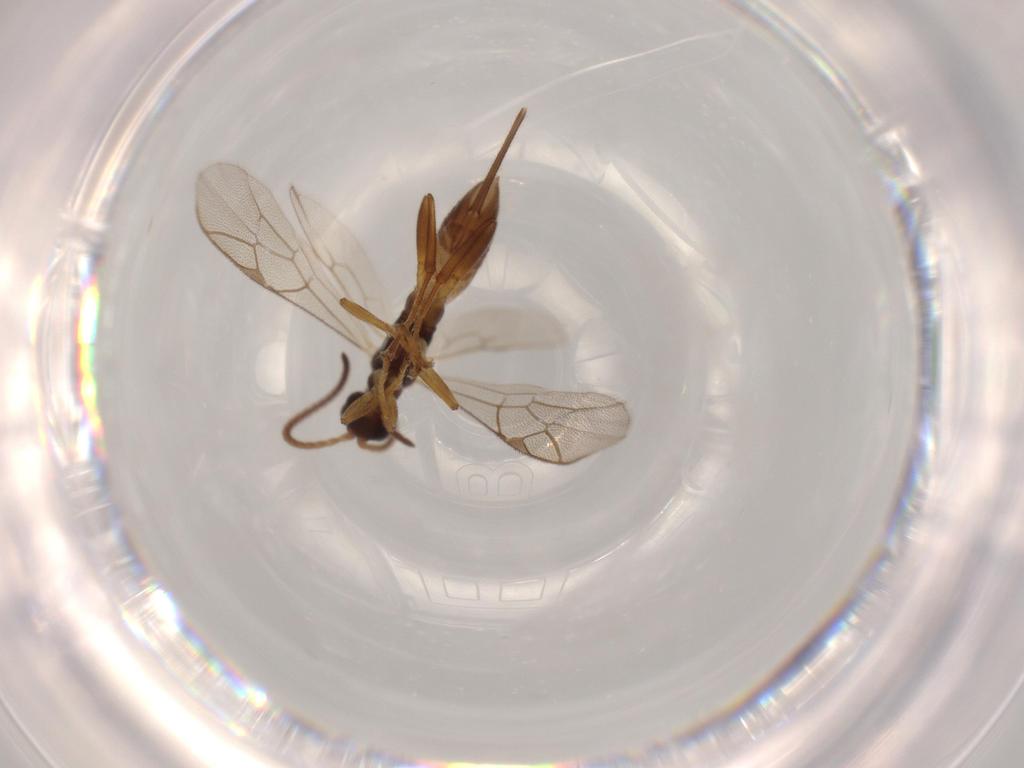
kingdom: Animalia
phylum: Arthropoda
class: Insecta
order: Hymenoptera
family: Ichneumonidae
